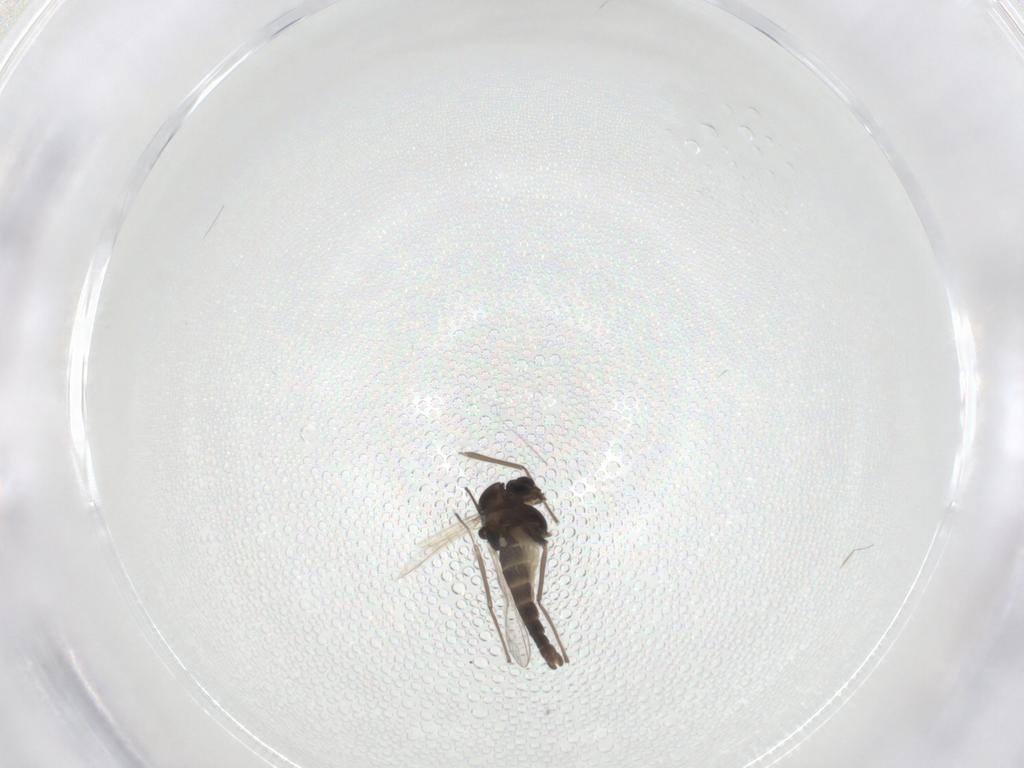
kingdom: Animalia
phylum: Arthropoda
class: Insecta
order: Diptera
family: Chironomidae
